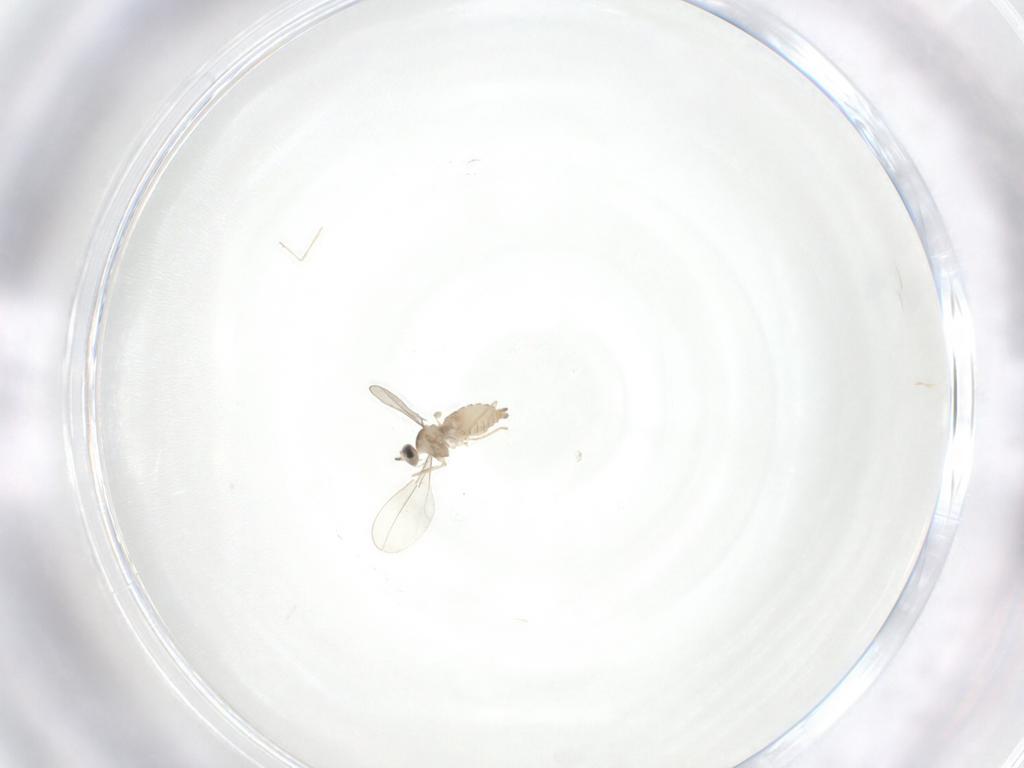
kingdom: Animalia
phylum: Arthropoda
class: Insecta
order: Diptera
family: Cecidomyiidae
